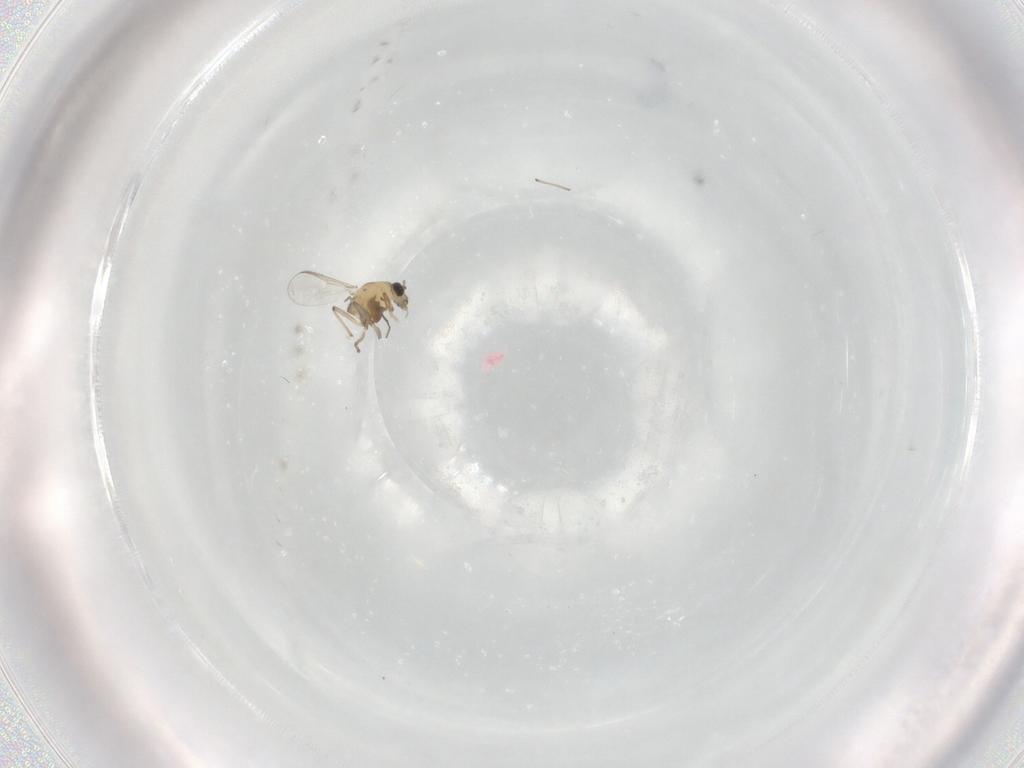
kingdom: Animalia
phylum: Arthropoda
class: Insecta
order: Diptera
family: Chironomidae
